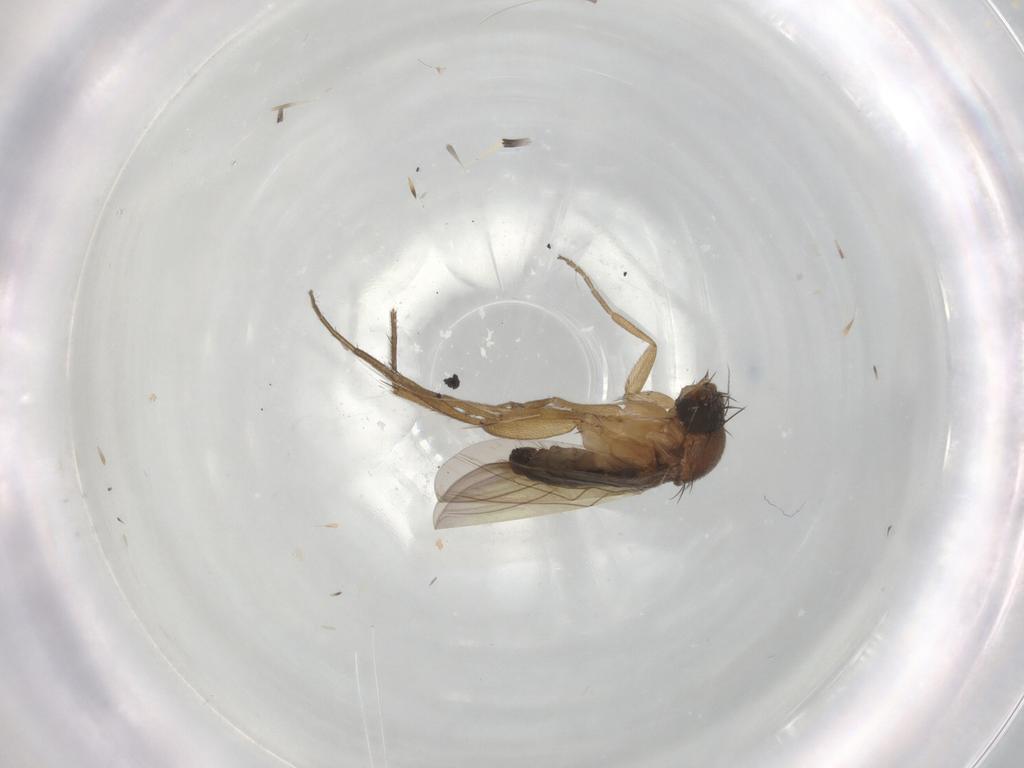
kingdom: Animalia
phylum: Arthropoda
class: Insecta
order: Diptera
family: Phoridae
